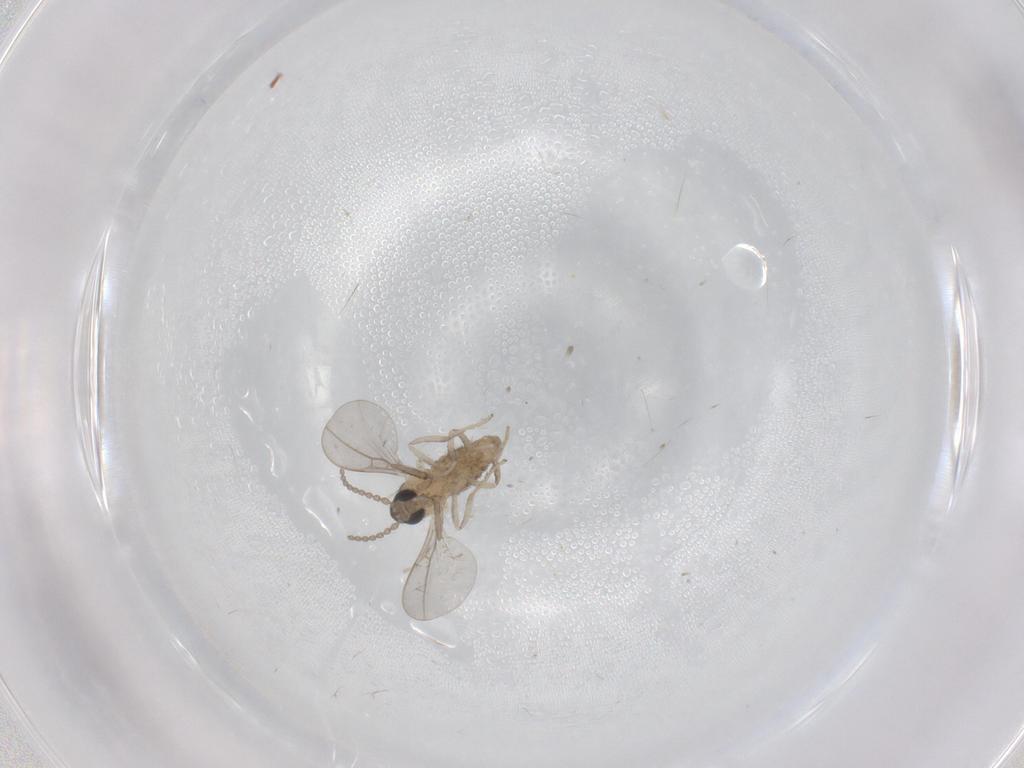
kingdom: Animalia
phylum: Arthropoda
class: Insecta
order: Diptera
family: Cecidomyiidae
